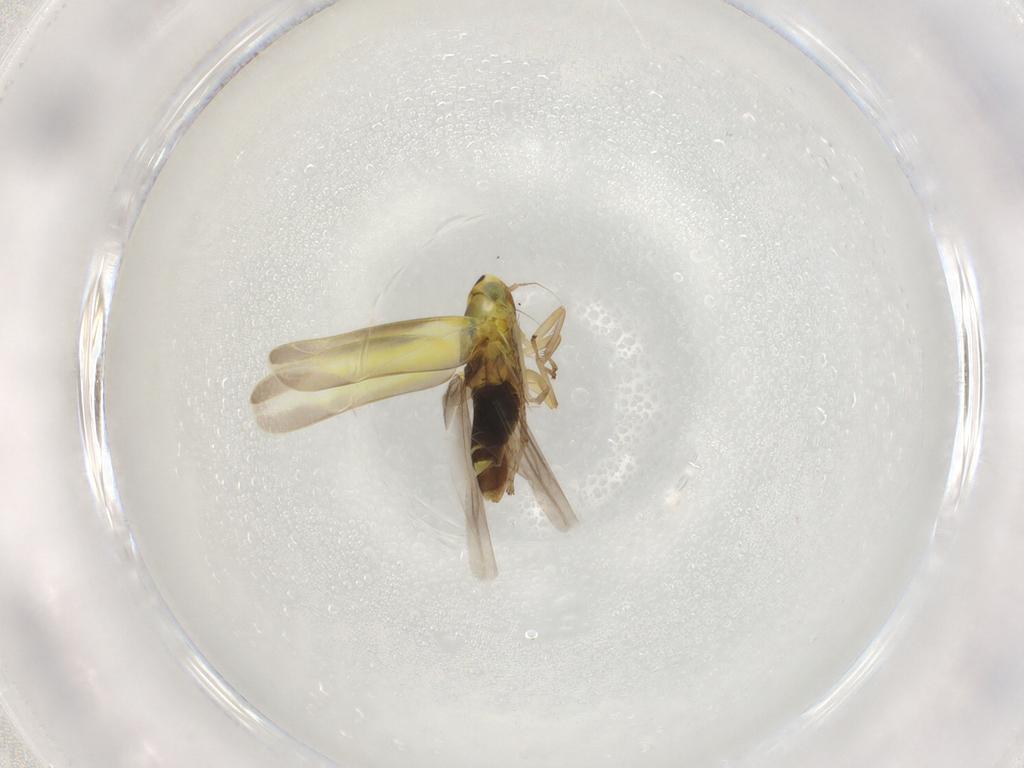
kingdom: Animalia
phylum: Arthropoda
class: Insecta
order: Hemiptera
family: Cicadellidae
